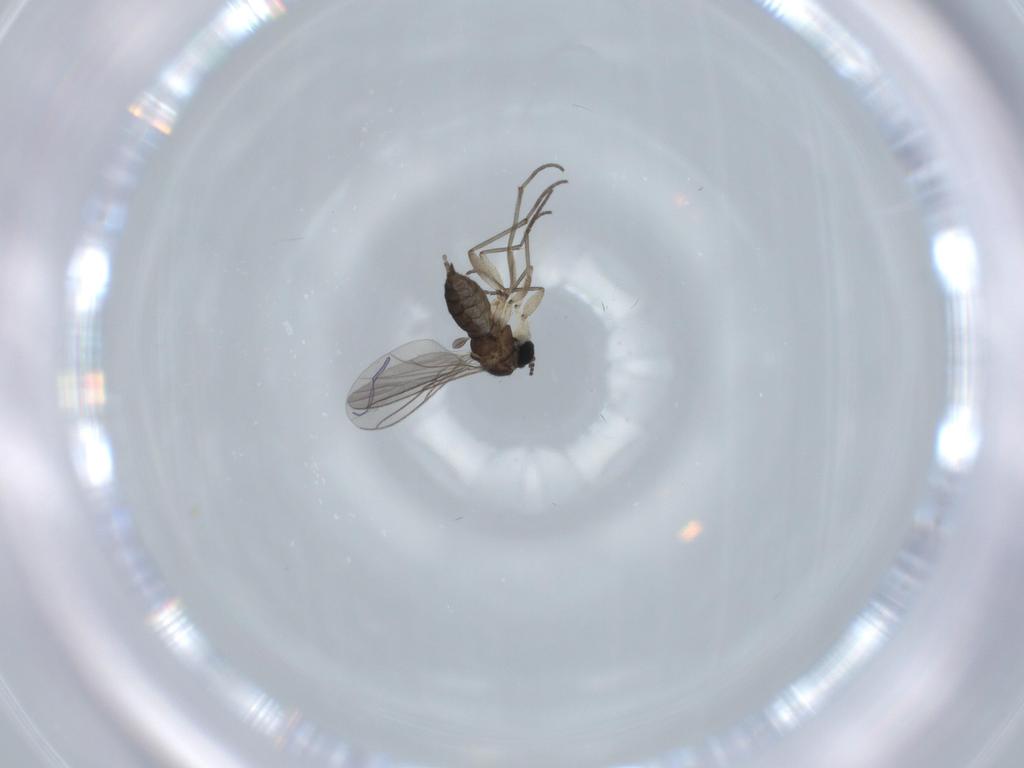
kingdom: Animalia
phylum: Arthropoda
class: Insecta
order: Diptera
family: Sciaridae
